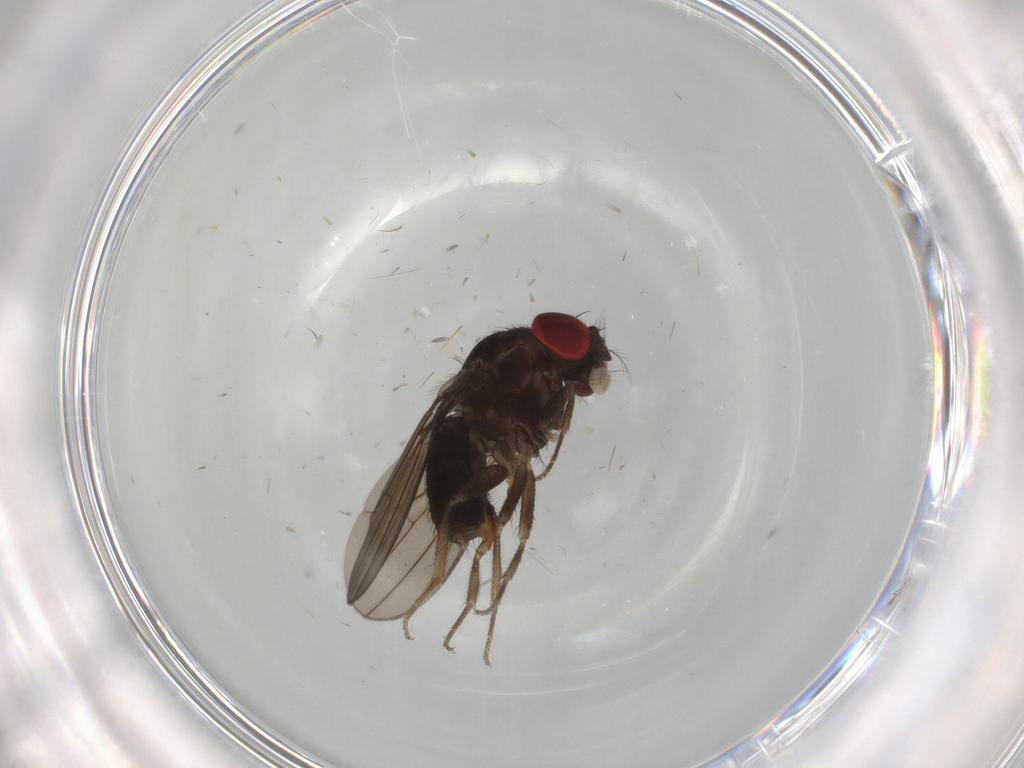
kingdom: Animalia
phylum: Arthropoda
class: Insecta
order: Diptera
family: Drosophilidae
